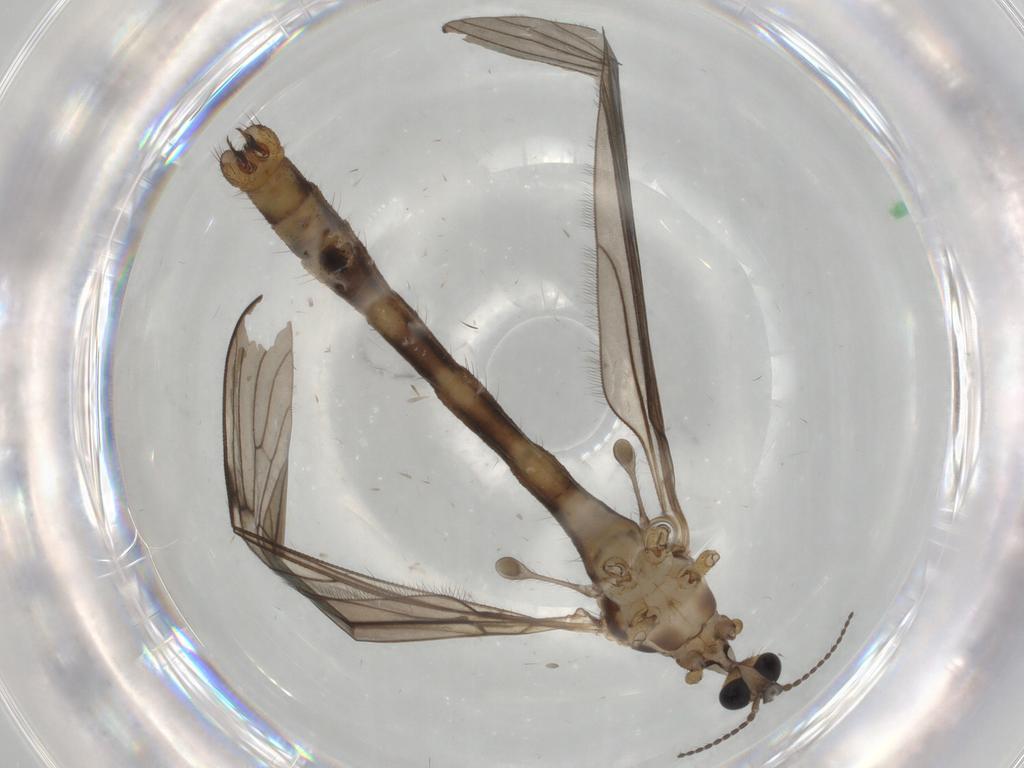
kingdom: Animalia
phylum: Arthropoda
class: Insecta
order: Diptera
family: Limoniidae
